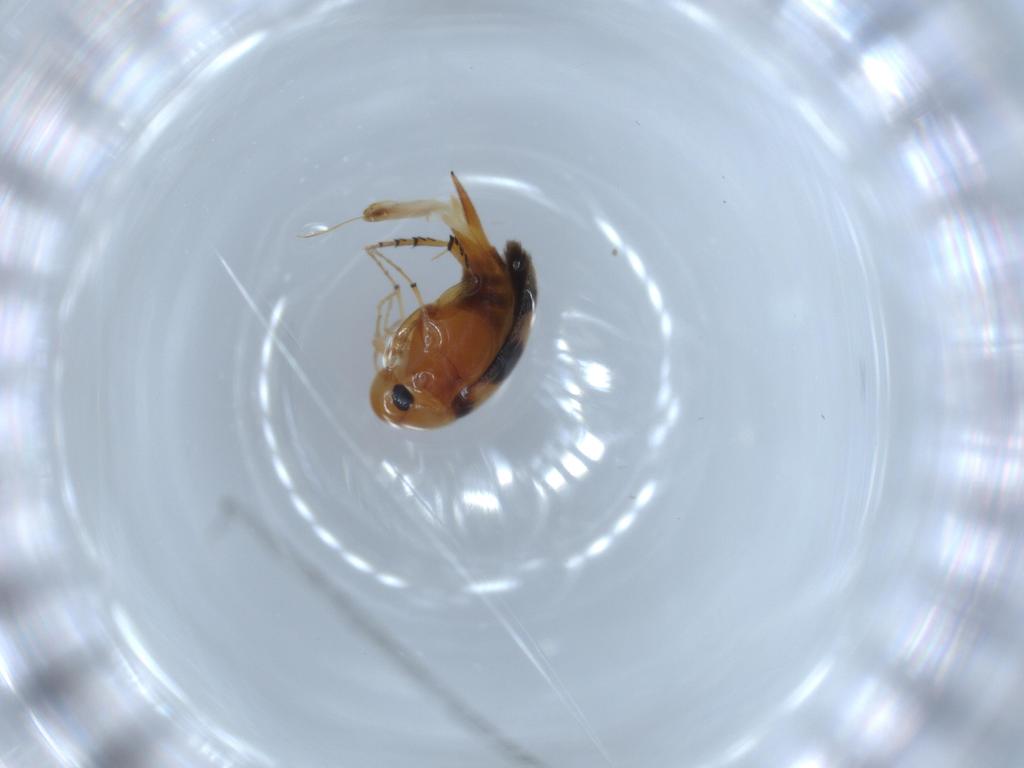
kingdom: Animalia
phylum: Arthropoda
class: Insecta
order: Coleoptera
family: Mordellidae
